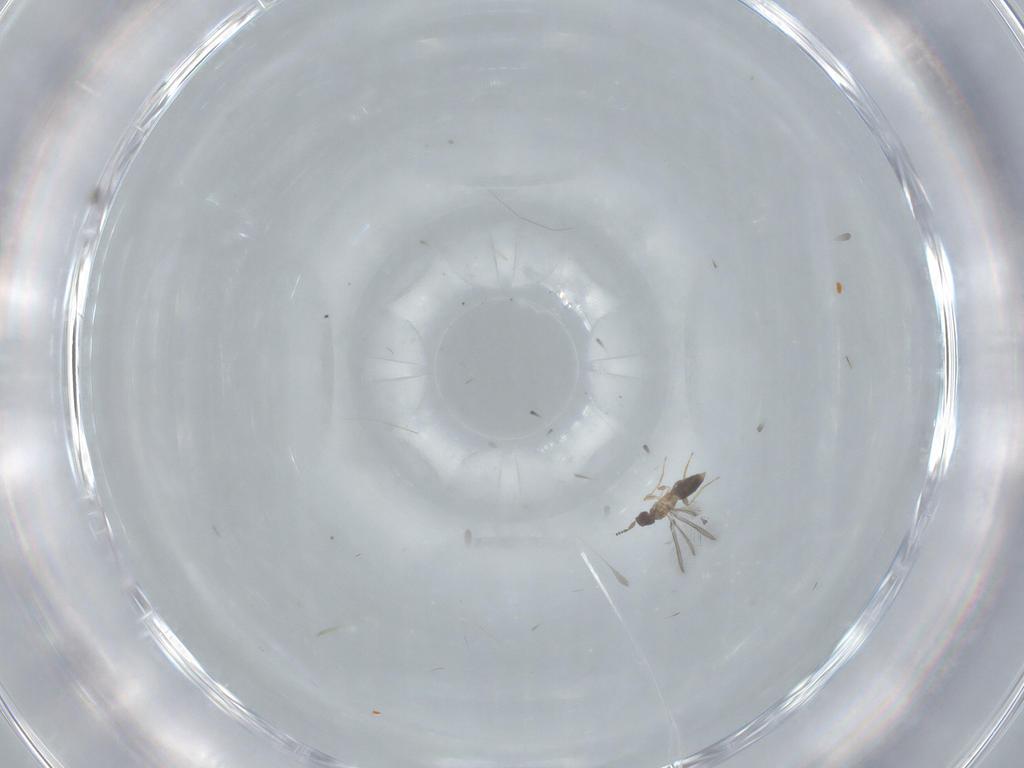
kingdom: Animalia
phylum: Arthropoda
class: Insecta
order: Hymenoptera
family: Mymaridae
